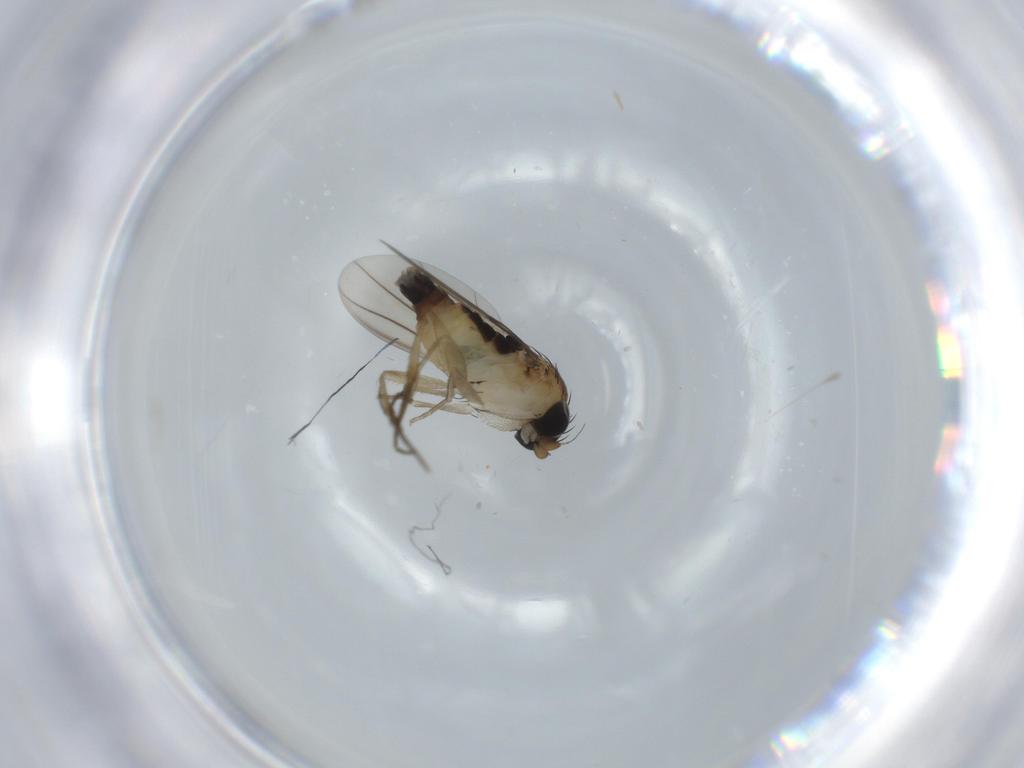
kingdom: Animalia
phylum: Arthropoda
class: Insecta
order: Diptera
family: Phoridae
